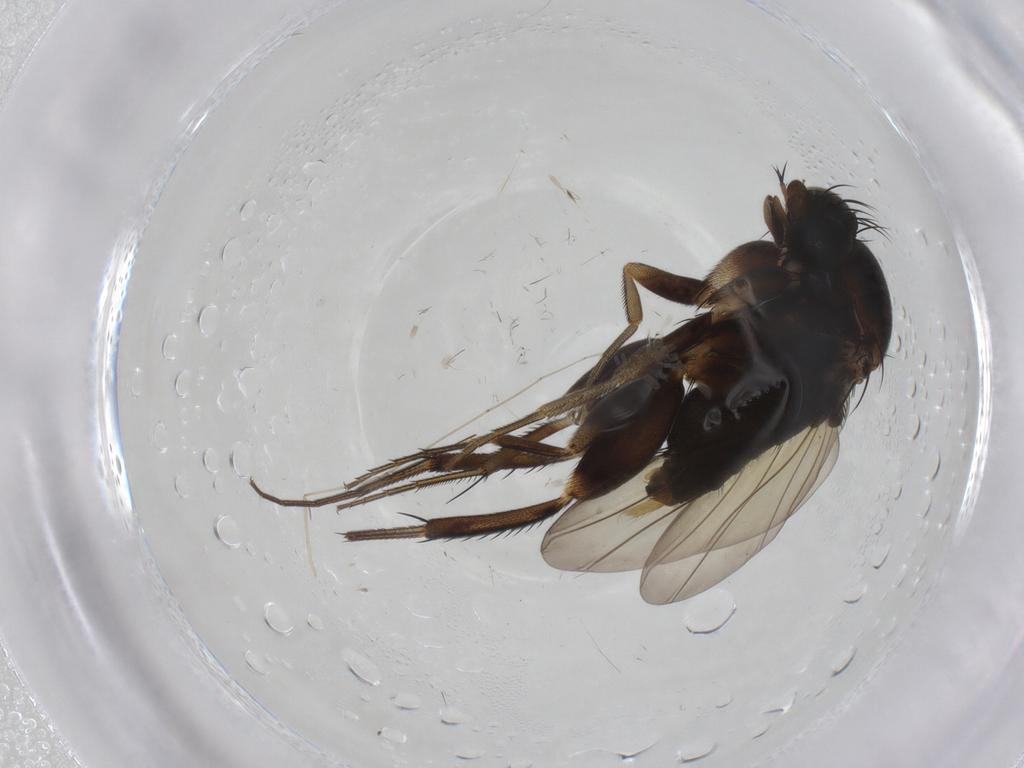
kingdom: Animalia
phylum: Arthropoda
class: Insecta
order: Diptera
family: Phoridae
